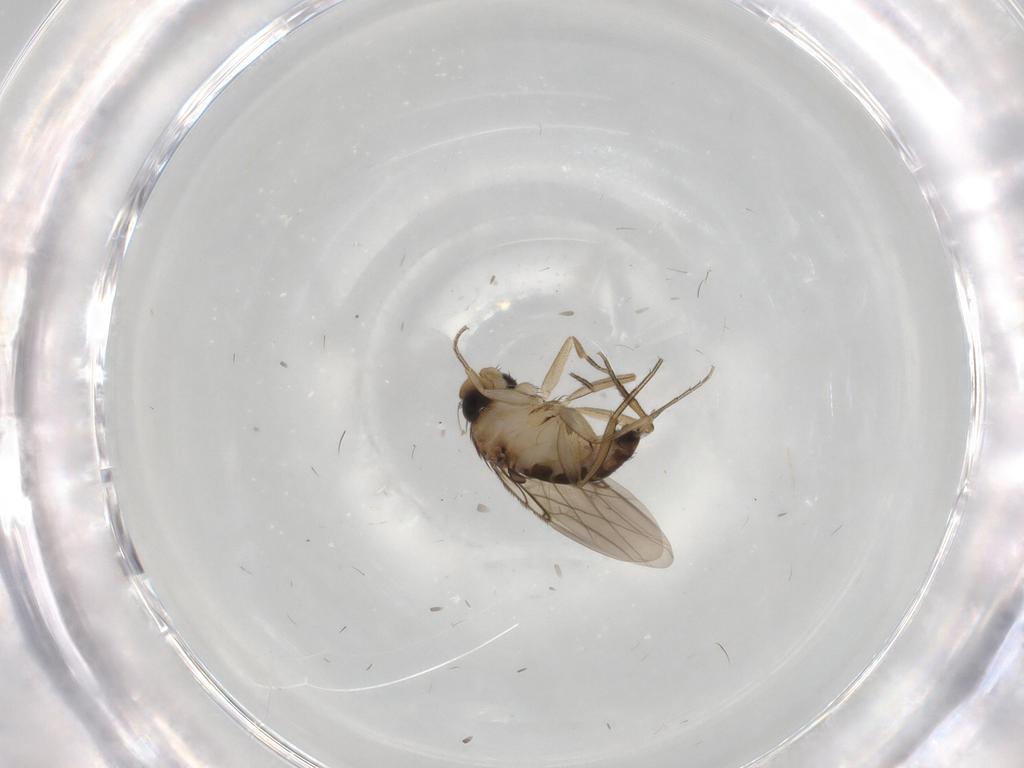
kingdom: Animalia
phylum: Arthropoda
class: Insecta
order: Diptera
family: Phoridae
